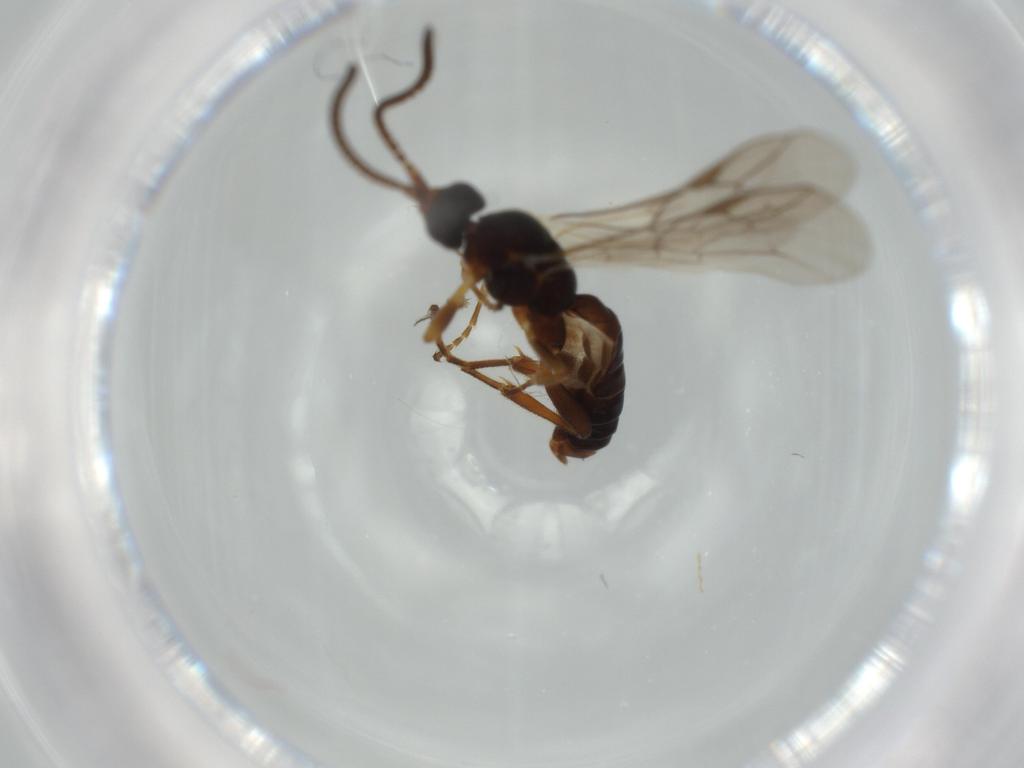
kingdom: Animalia
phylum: Arthropoda
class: Insecta
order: Hymenoptera
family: Ichneumonidae
